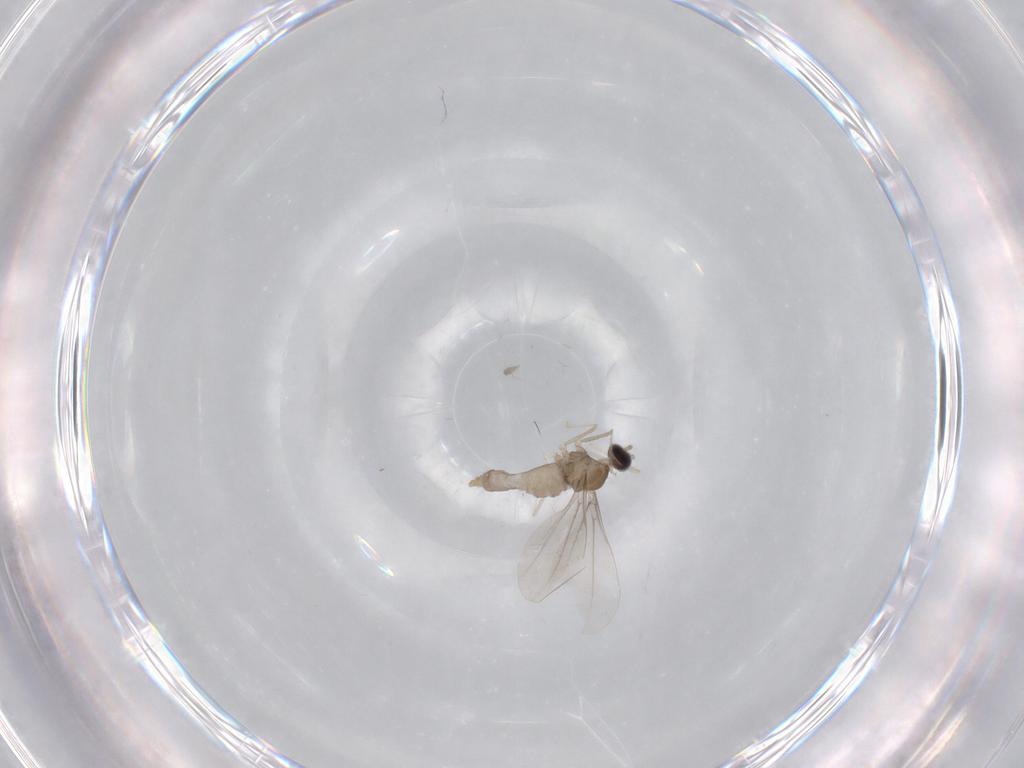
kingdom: Animalia
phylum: Arthropoda
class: Insecta
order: Diptera
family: Cecidomyiidae
